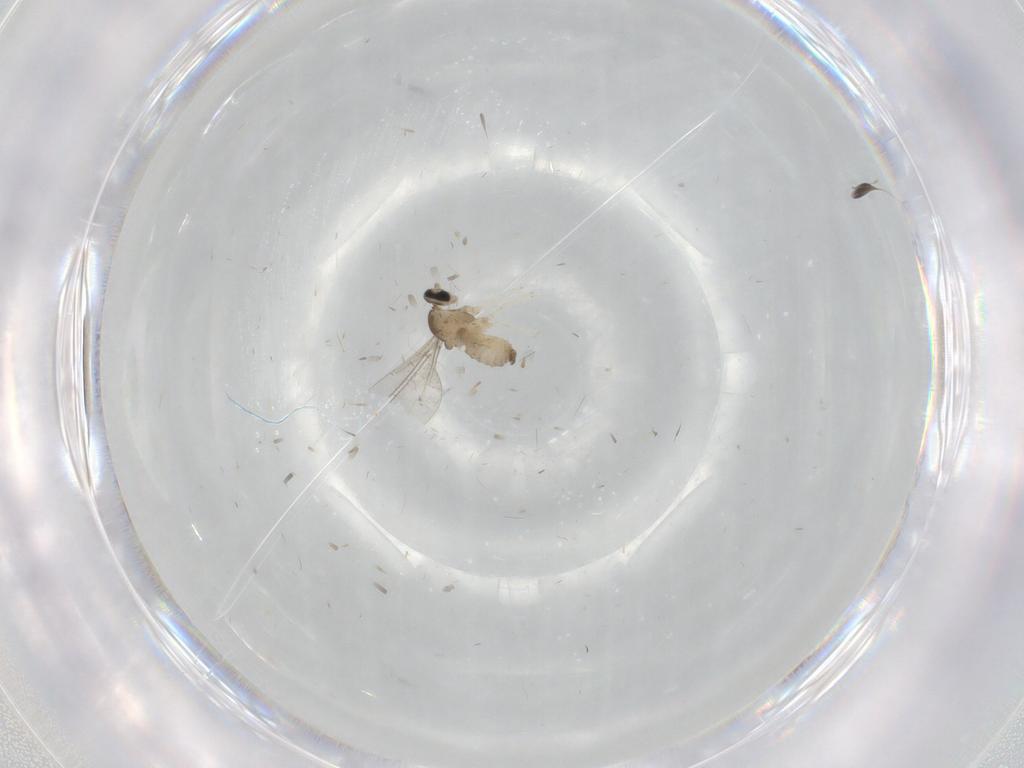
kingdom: Animalia
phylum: Arthropoda
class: Insecta
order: Diptera
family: Cecidomyiidae
